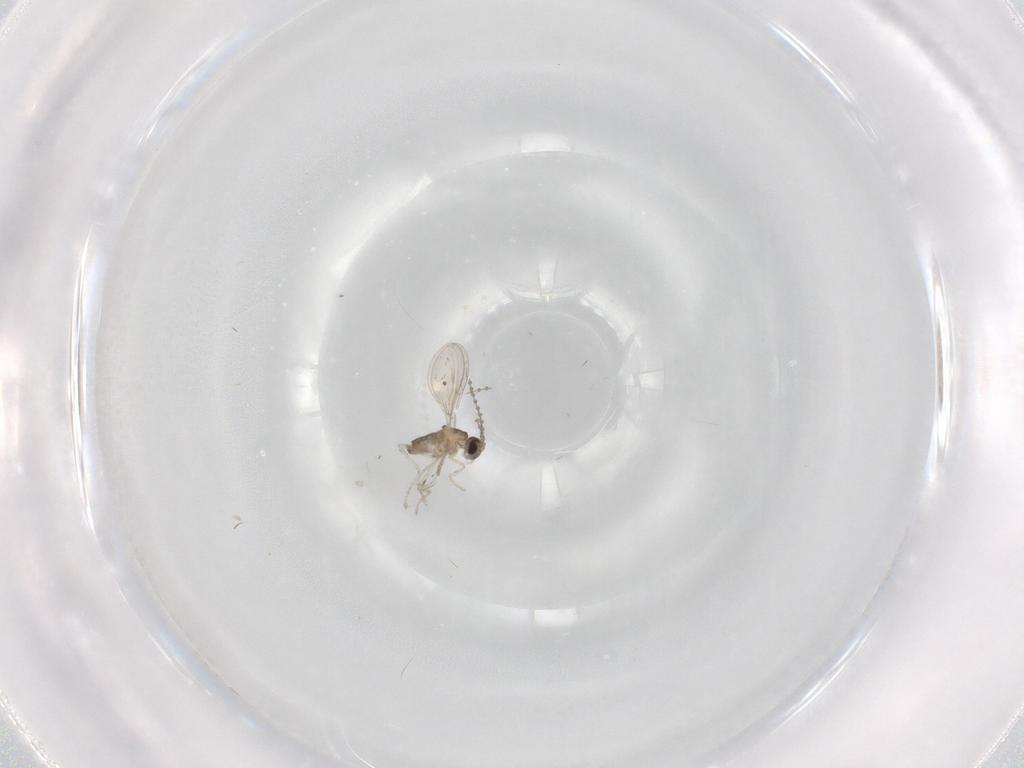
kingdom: Animalia
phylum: Arthropoda
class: Insecta
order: Diptera
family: Cecidomyiidae
